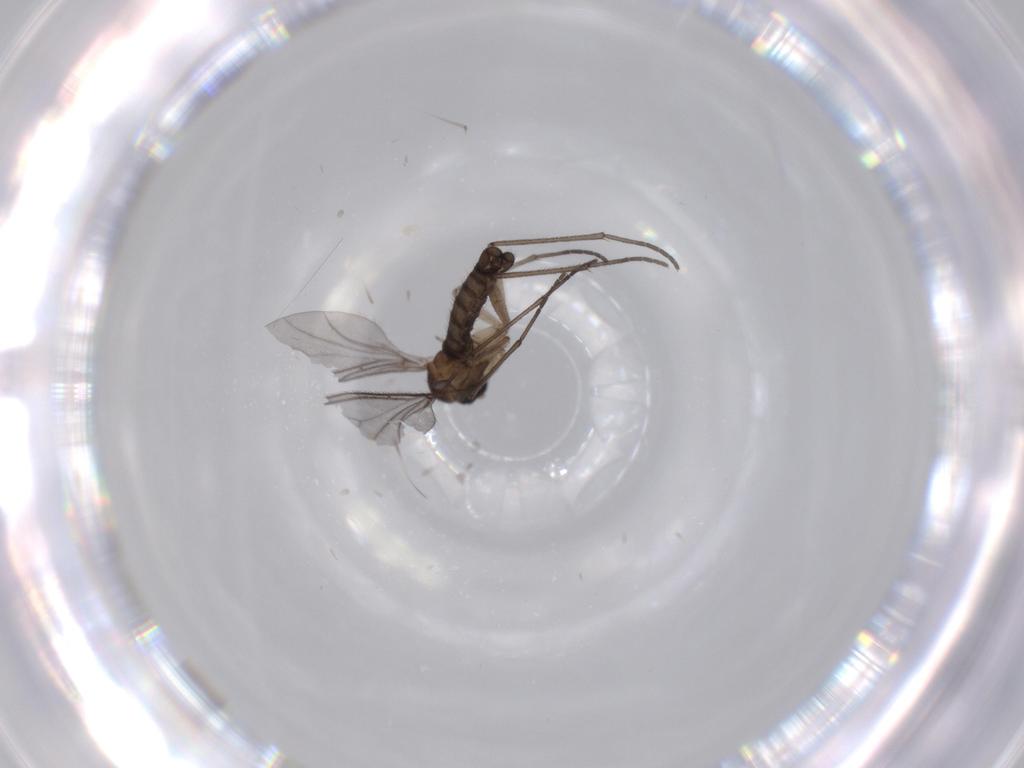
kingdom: Animalia
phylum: Arthropoda
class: Insecta
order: Diptera
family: Sciaridae
